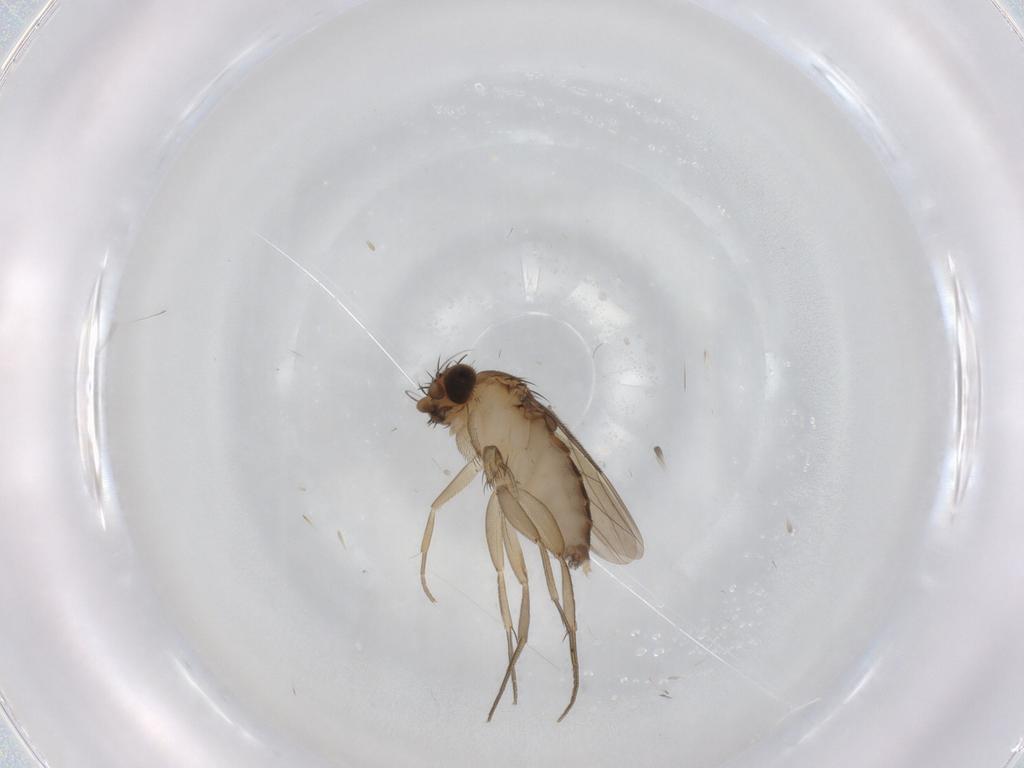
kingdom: Animalia
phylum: Arthropoda
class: Insecta
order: Diptera
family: Phoridae
